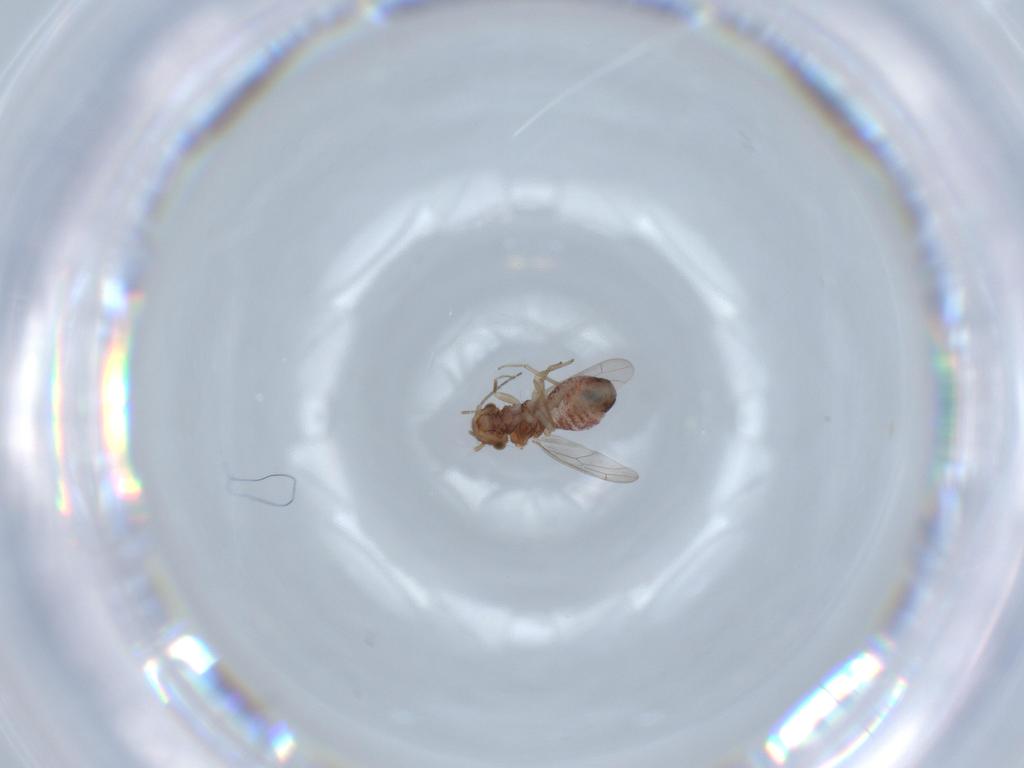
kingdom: Animalia
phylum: Arthropoda
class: Insecta
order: Psocodea
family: Ectopsocidae
